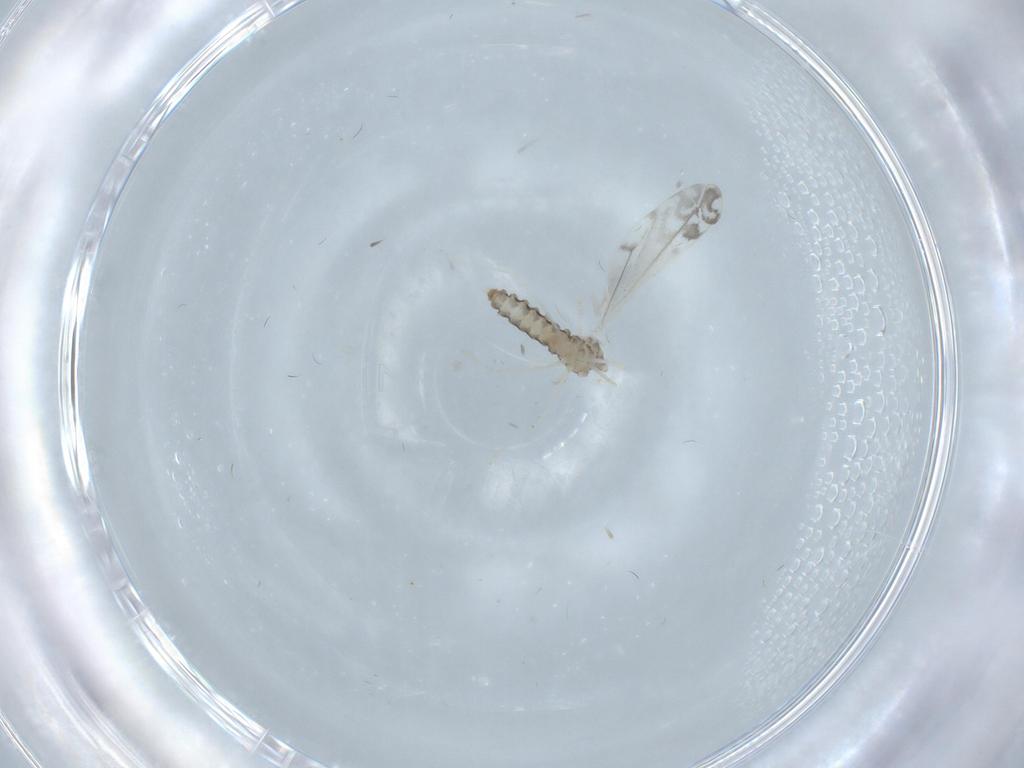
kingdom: Animalia
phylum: Arthropoda
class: Insecta
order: Diptera
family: Cecidomyiidae
